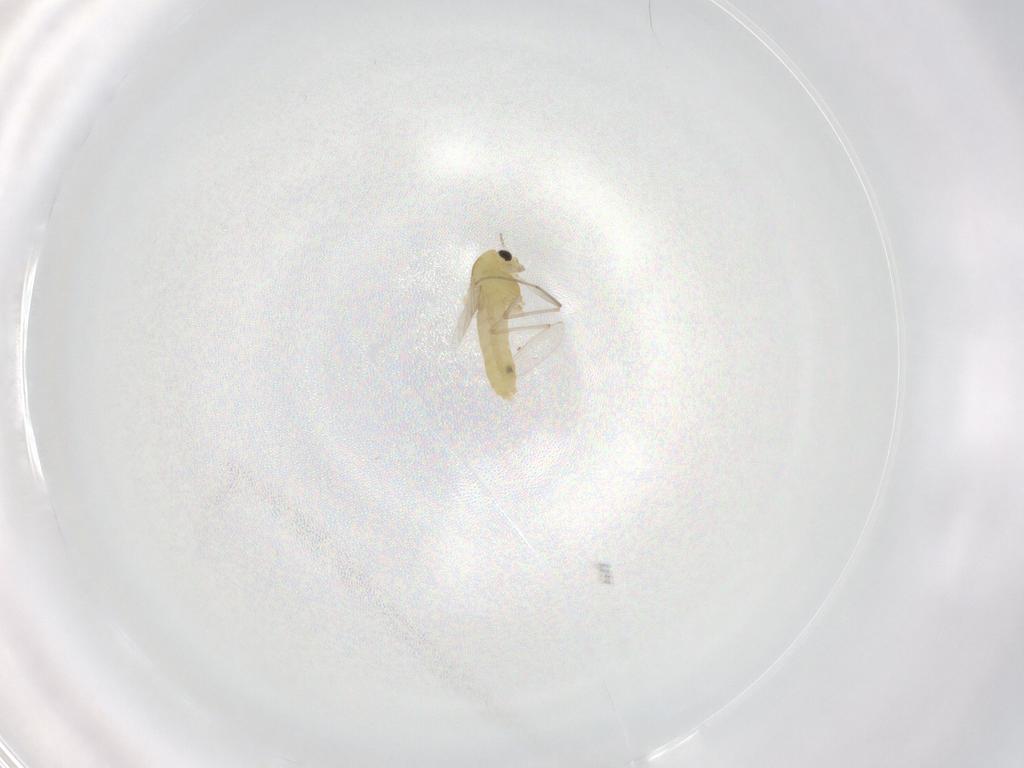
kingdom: Animalia
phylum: Arthropoda
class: Insecta
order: Diptera
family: Chironomidae
